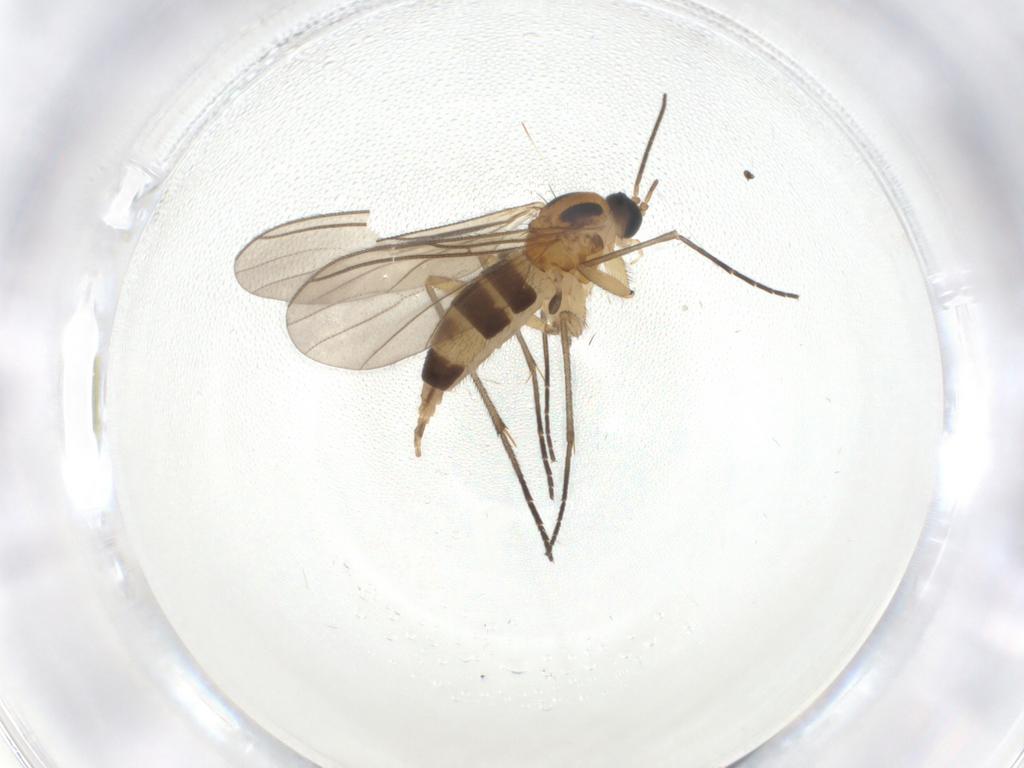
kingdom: Animalia
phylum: Arthropoda
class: Insecta
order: Coleoptera
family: Staphylinidae
